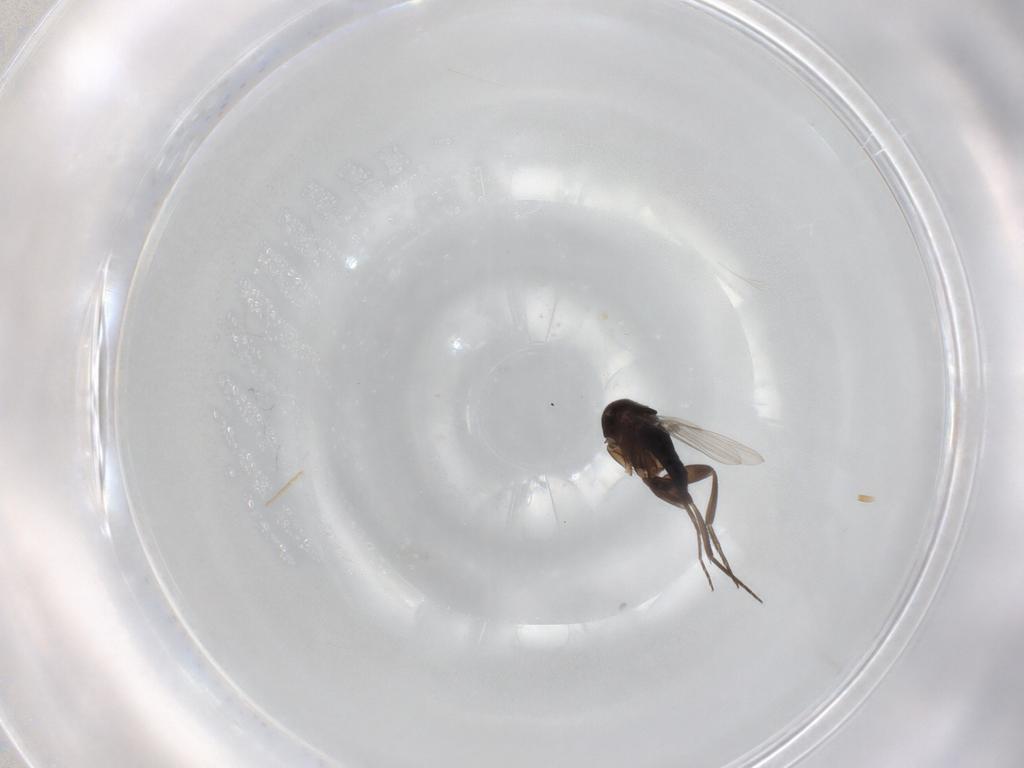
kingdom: Animalia
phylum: Arthropoda
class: Insecta
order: Diptera
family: Phoridae
